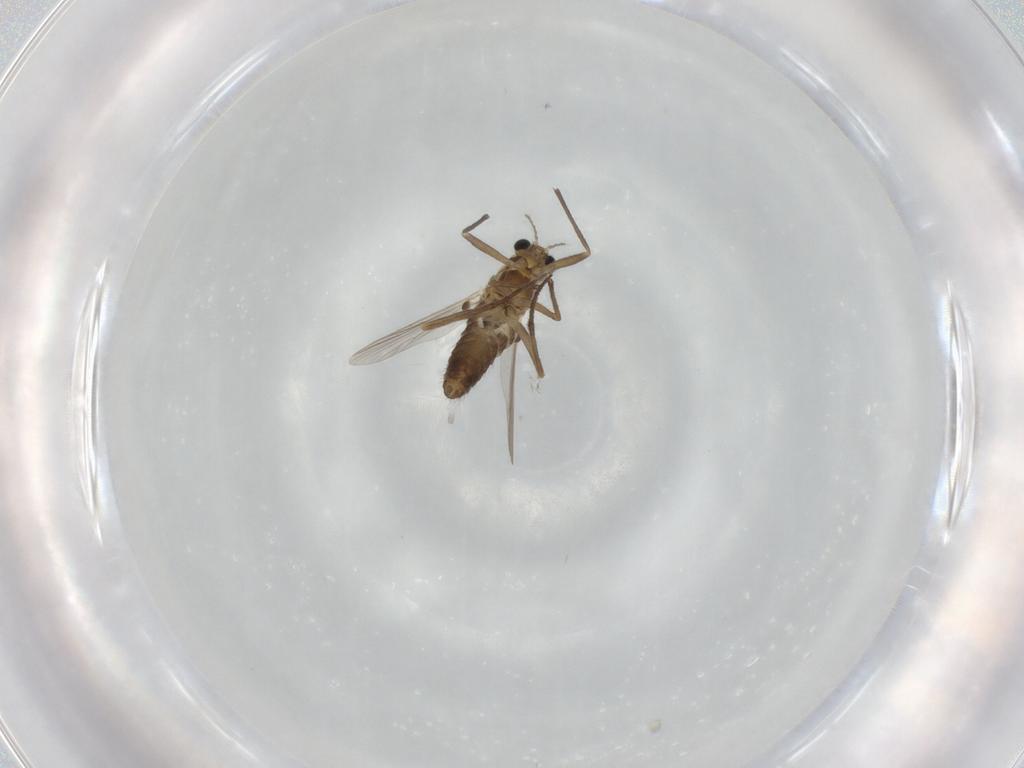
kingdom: Animalia
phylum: Arthropoda
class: Insecta
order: Diptera
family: Chironomidae
